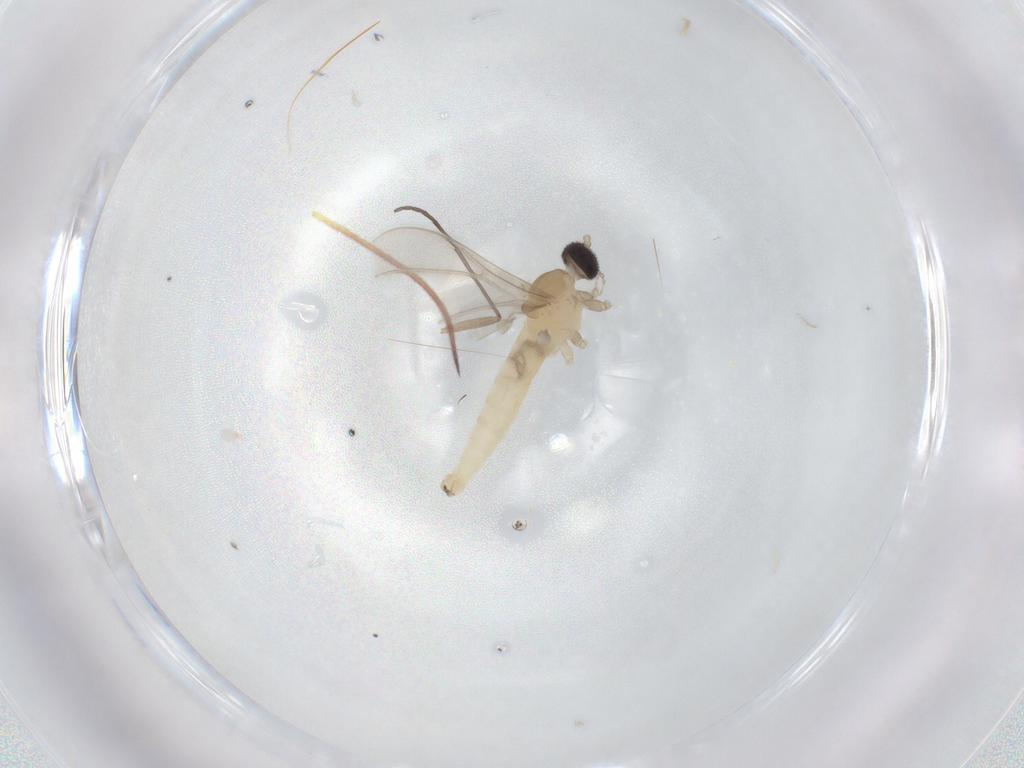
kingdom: Animalia
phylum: Arthropoda
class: Insecta
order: Diptera
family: Cecidomyiidae
